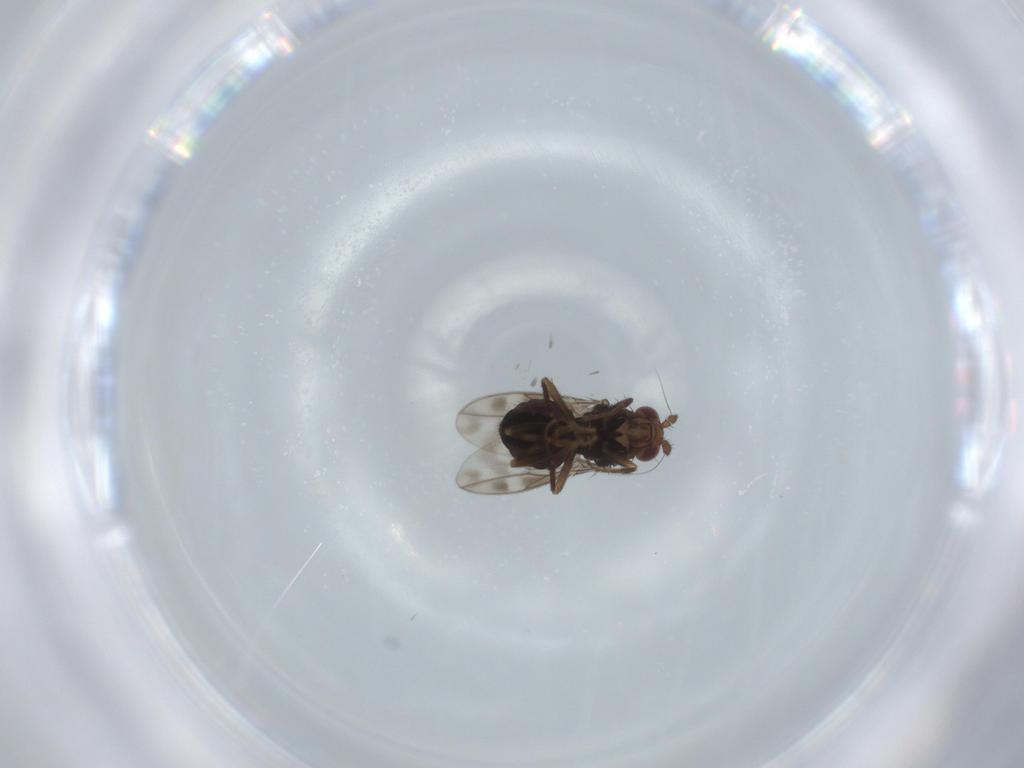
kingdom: Animalia
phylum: Arthropoda
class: Insecta
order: Diptera
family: Sphaeroceridae
